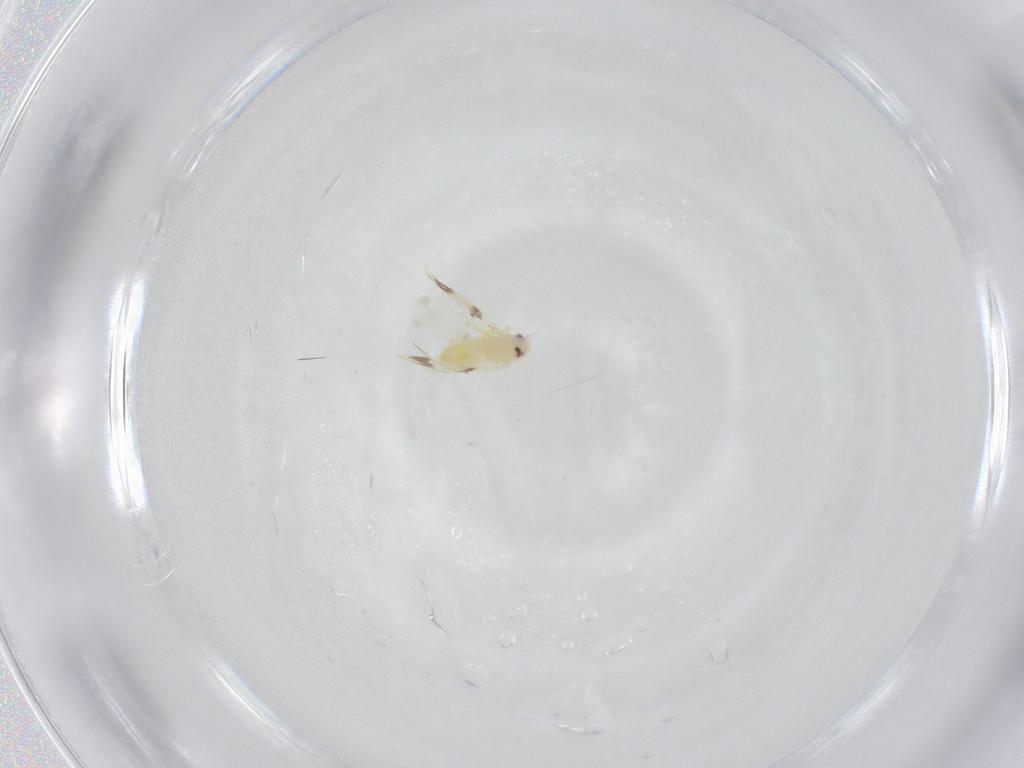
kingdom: Animalia
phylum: Arthropoda
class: Insecta
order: Hemiptera
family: Aleyrodidae
